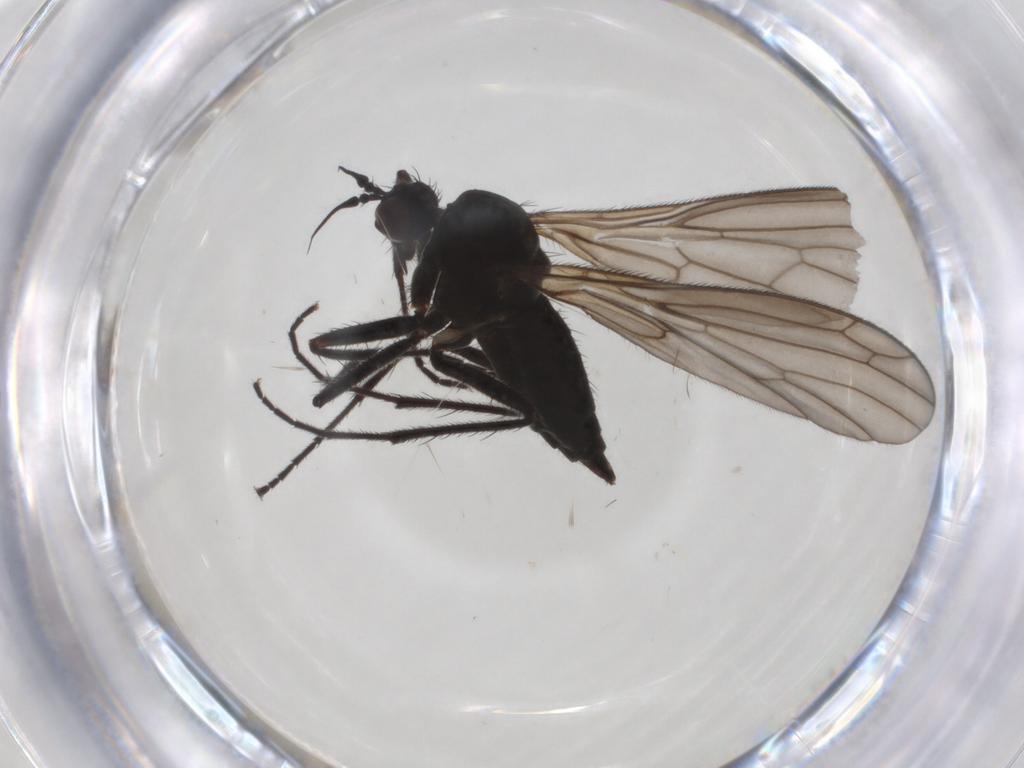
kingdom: Animalia
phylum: Arthropoda
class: Insecta
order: Diptera
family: Empididae
